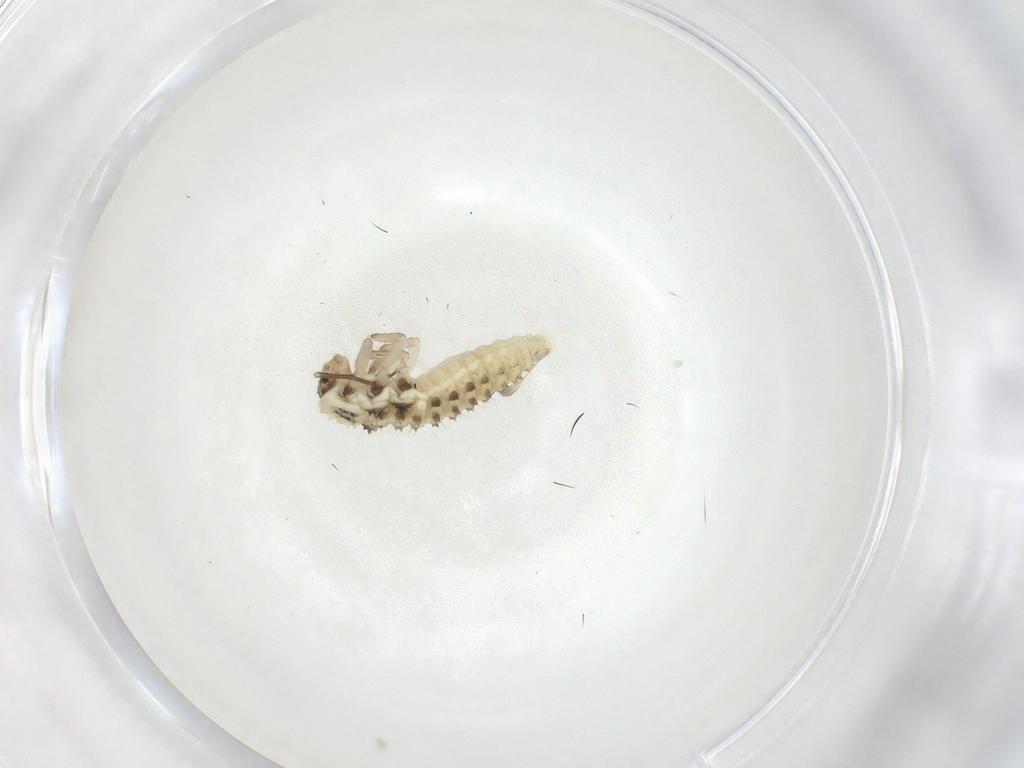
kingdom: Animalia
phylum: Arthropoda
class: Insecta
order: Coleoptera
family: Coccinellidae
